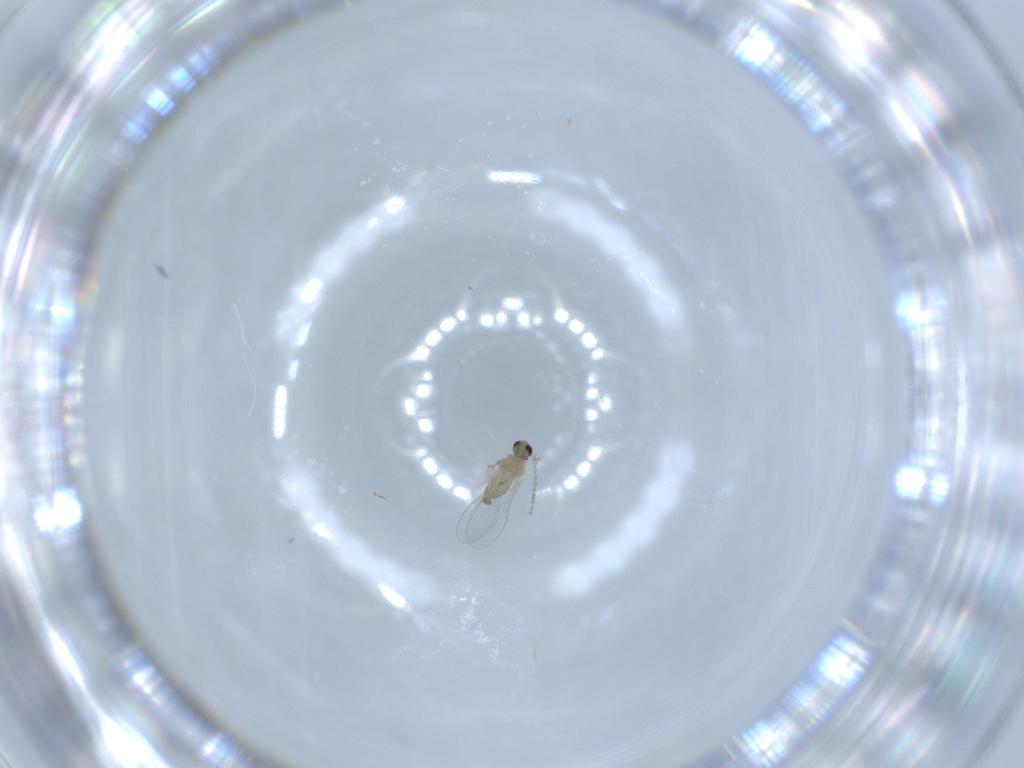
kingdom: Animalia
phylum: Arthropoda
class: Insecta
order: Diptera
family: Cecidomyiidae
